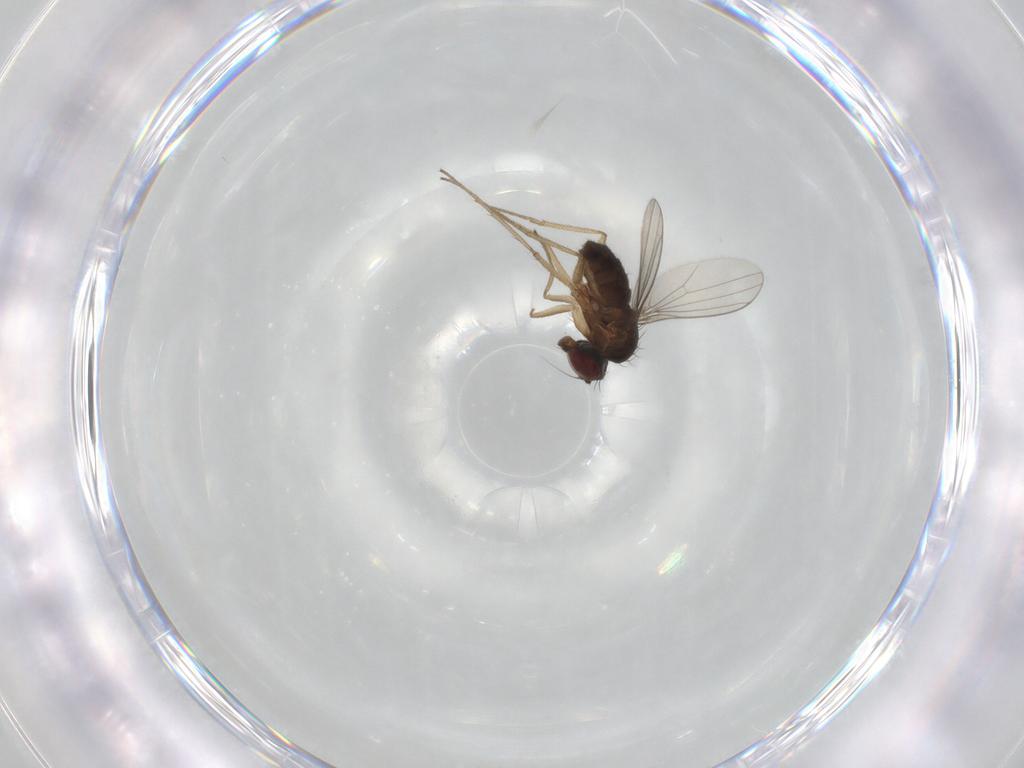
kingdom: Animalia
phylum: Arthropoda
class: Insecta
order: Diptera
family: Dolichopodidae
